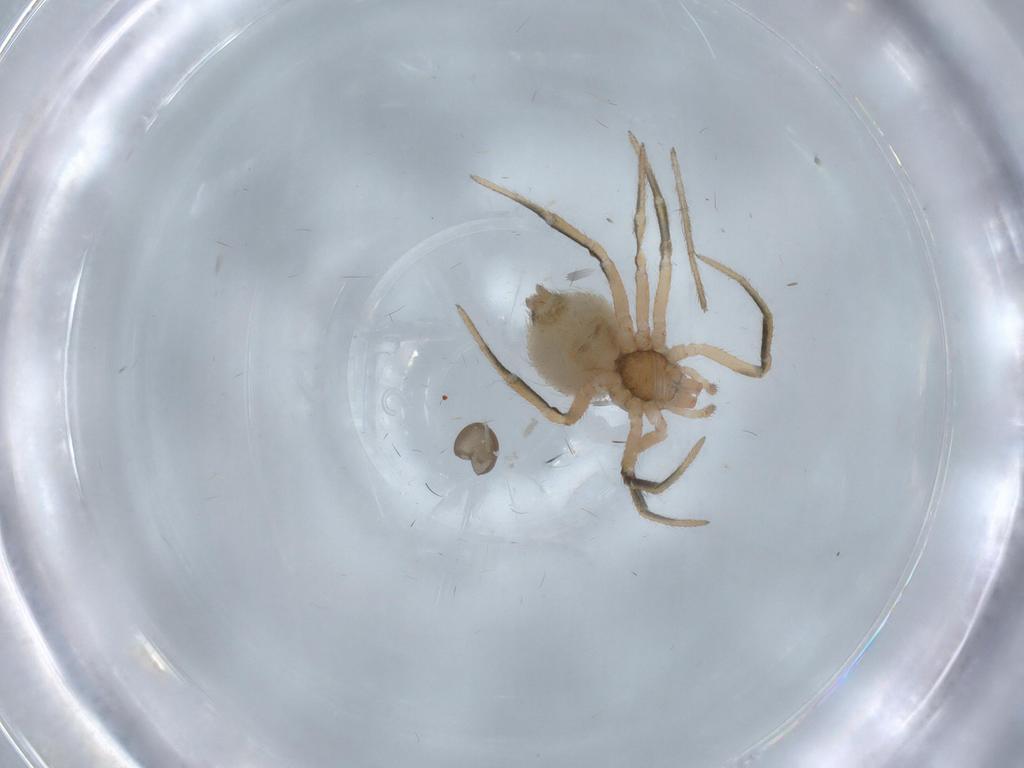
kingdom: Animalia
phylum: Arthropoda
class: Arachnida
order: Araneae
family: Theridiidae
